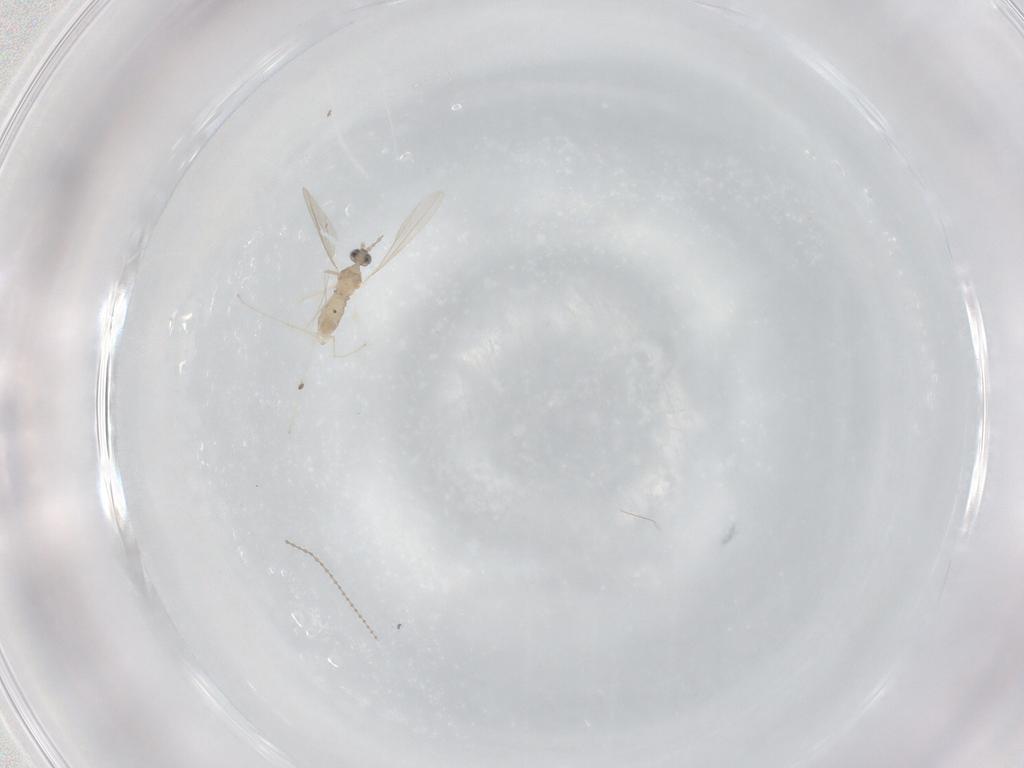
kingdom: Animalia
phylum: Arthropoda
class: Insecta
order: Diptera
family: Cecidomyiidae
